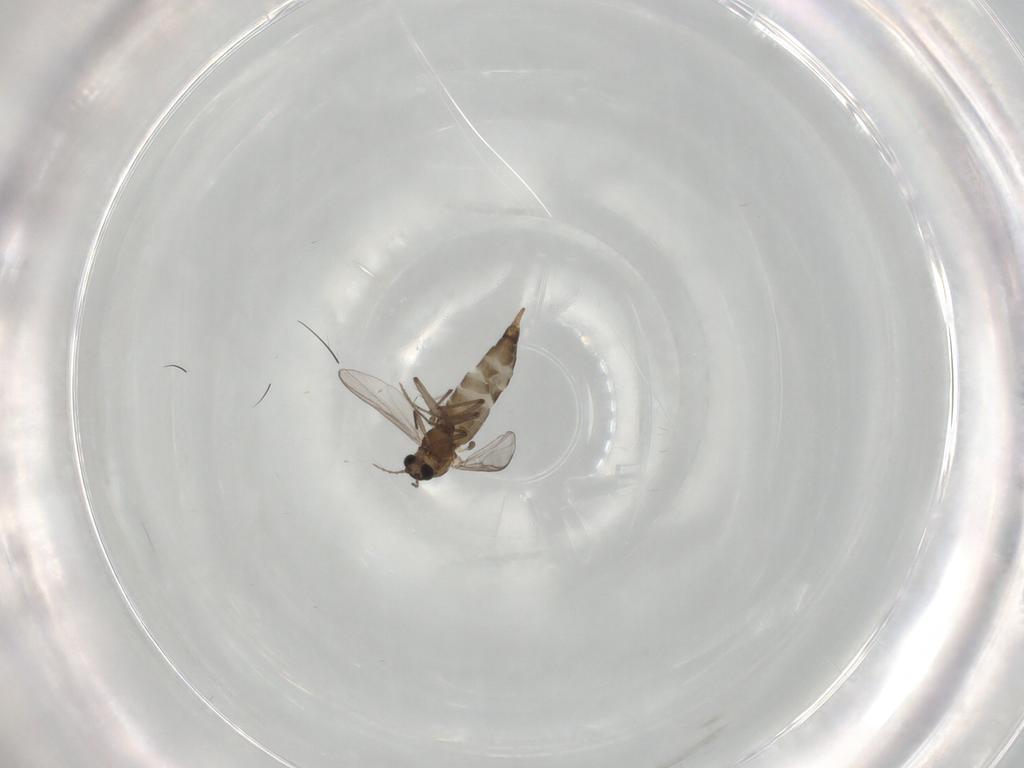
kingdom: Animalia
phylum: Arthropoda
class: Insecta
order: Diptera
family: Chironomidae
